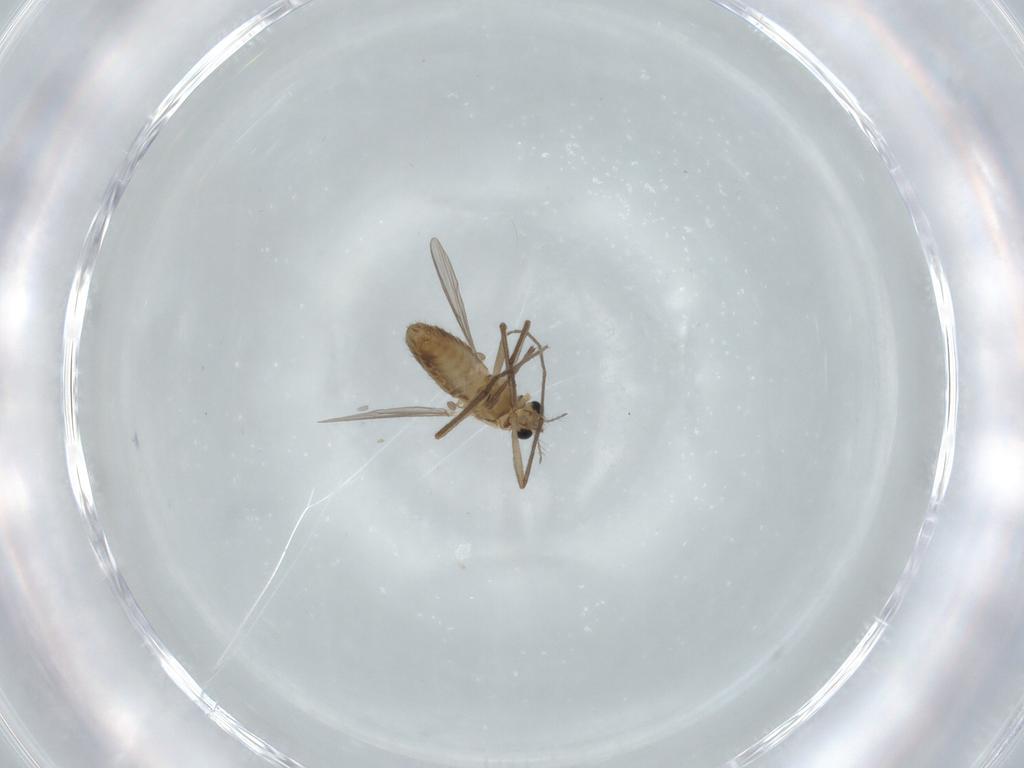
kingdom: Animalia
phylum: Arthropoda
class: Insecta
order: Diptera
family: Chironomidae
